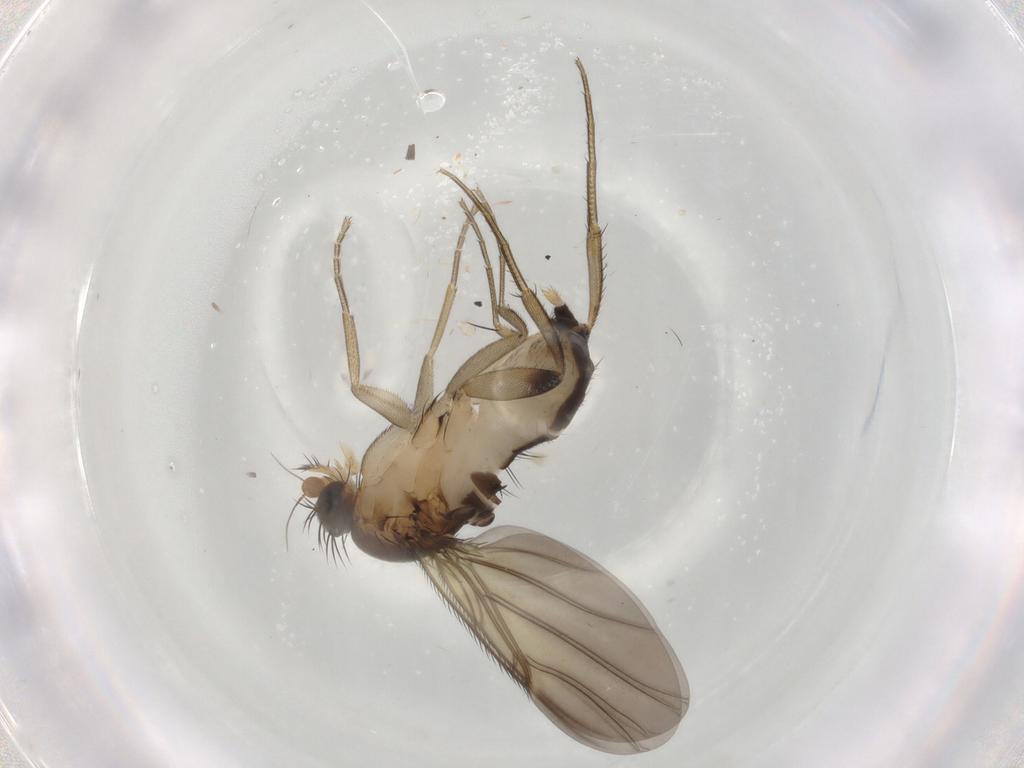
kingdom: Animalia
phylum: Arthropoda
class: Insecta
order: Diptera
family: Phoridae
